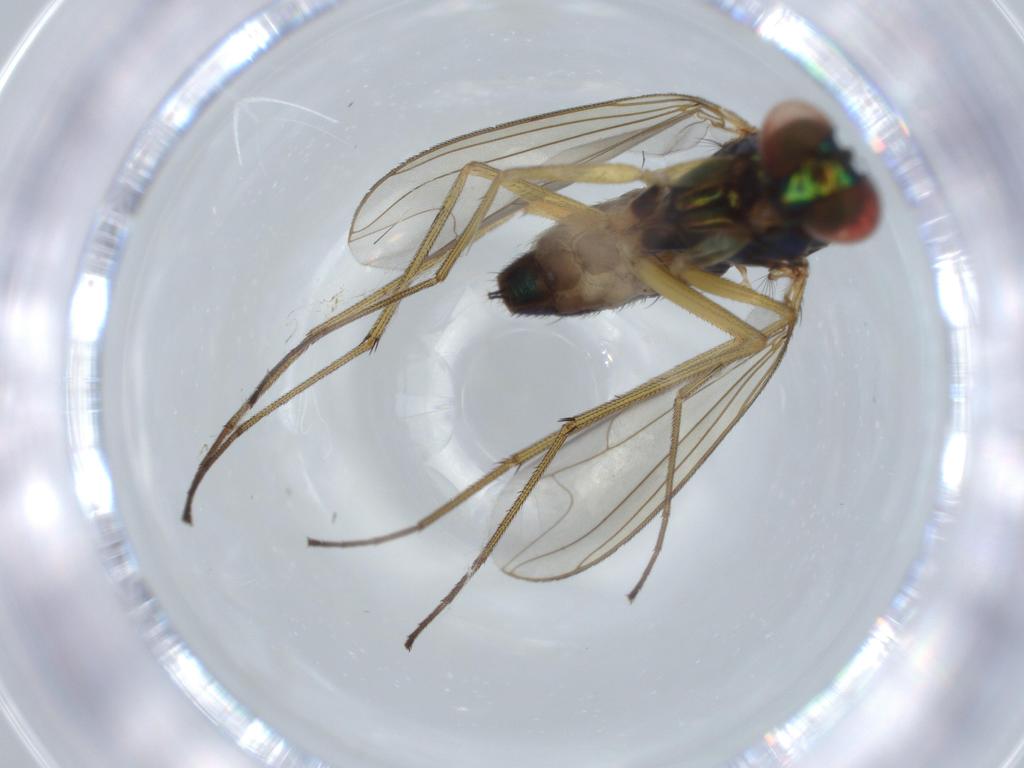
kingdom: Animalia
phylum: Arthropoda
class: Insecta
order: Diptera
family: Dolichopodidae
